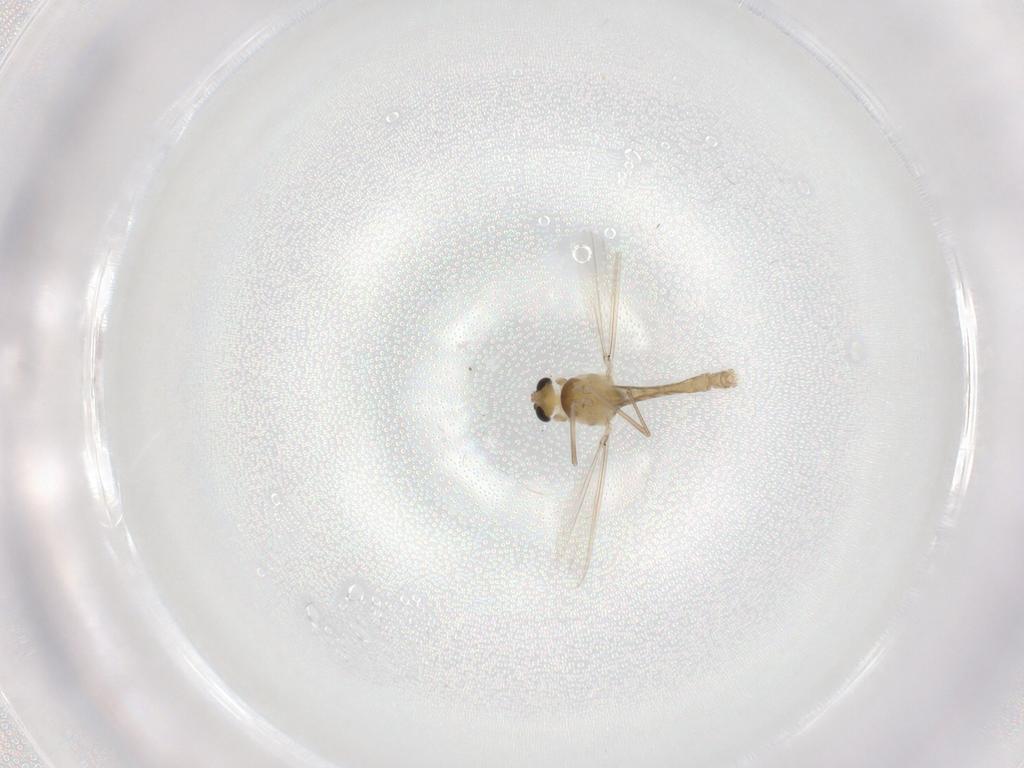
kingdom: Animalia
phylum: Arthropoda
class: Insecta
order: Diptera
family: Chironomidae
